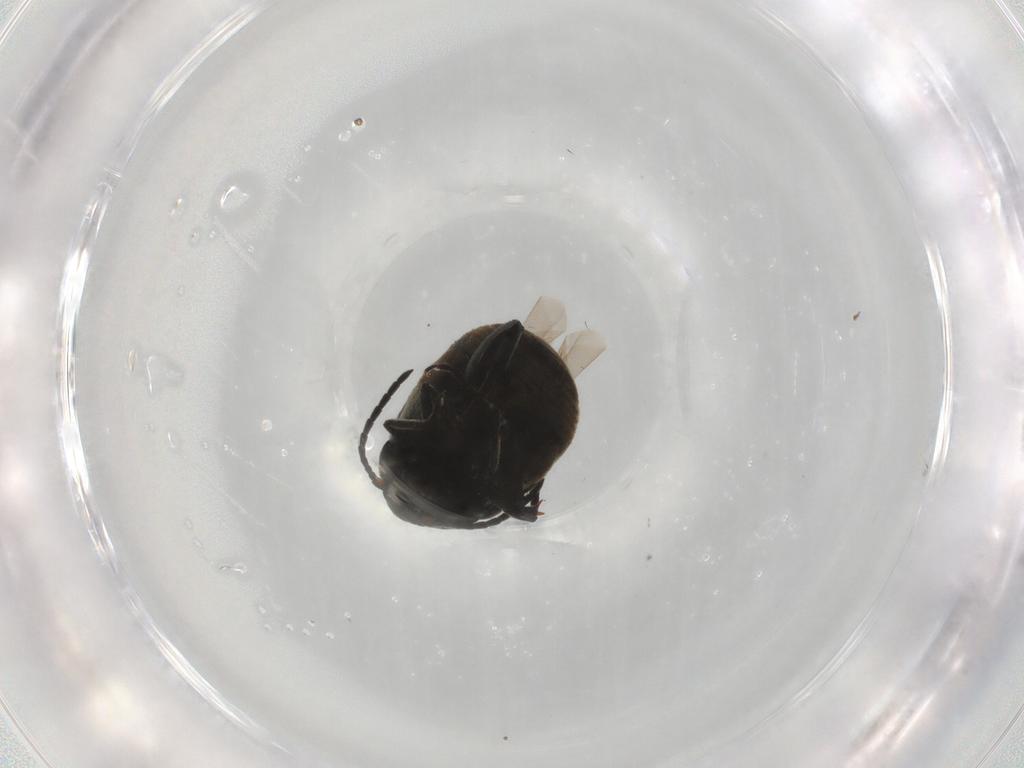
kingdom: Animalia
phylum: Arthropoda
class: Insecta
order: Coleoptera
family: Chrysomelidae
